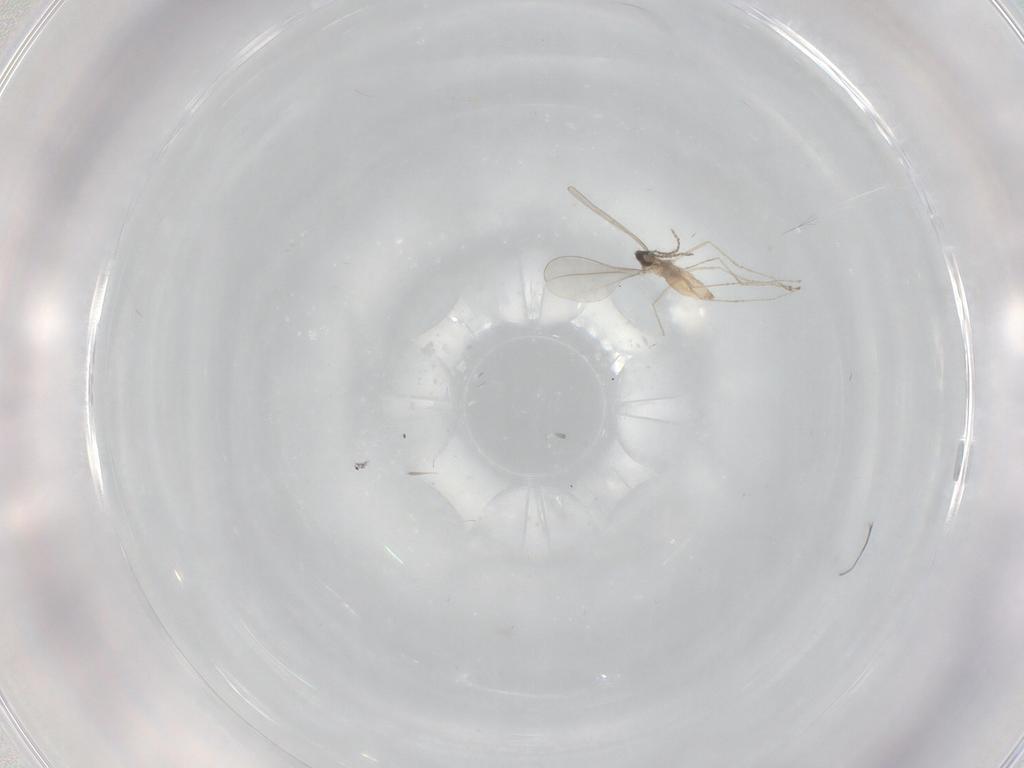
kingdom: Animalia
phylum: Arthropoda
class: Insecta
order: Diptera
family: Cecidomyiidae
